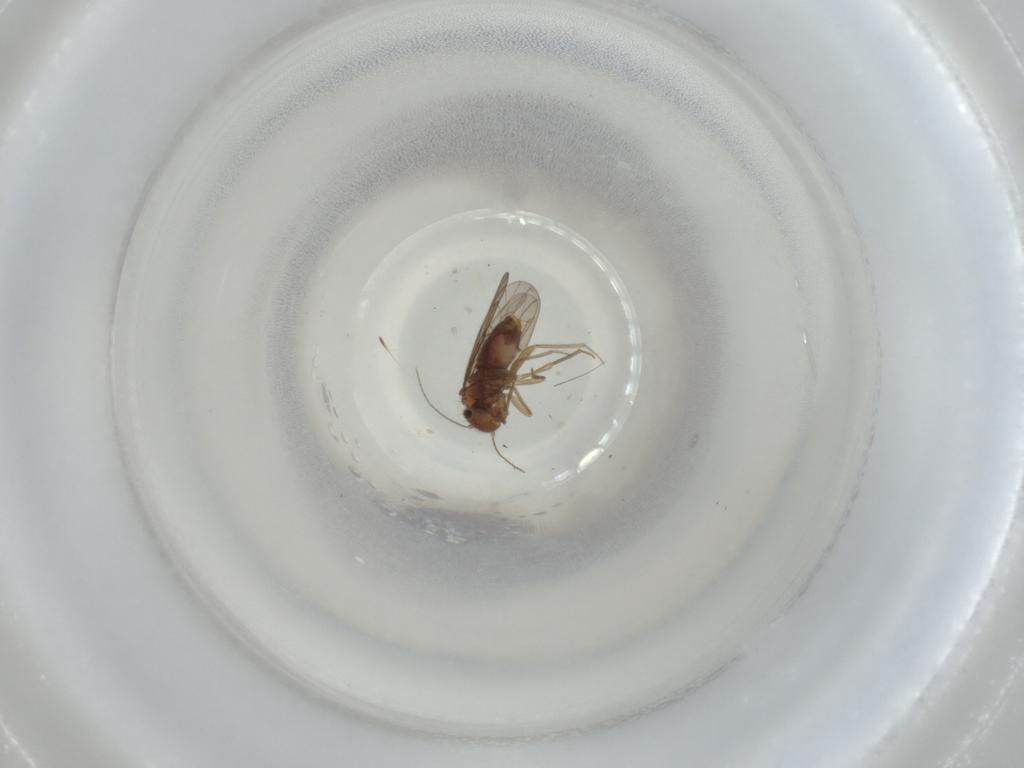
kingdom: Animalia
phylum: Arthropoda
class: Insecta
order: Psocodea
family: Ectopsocidae
